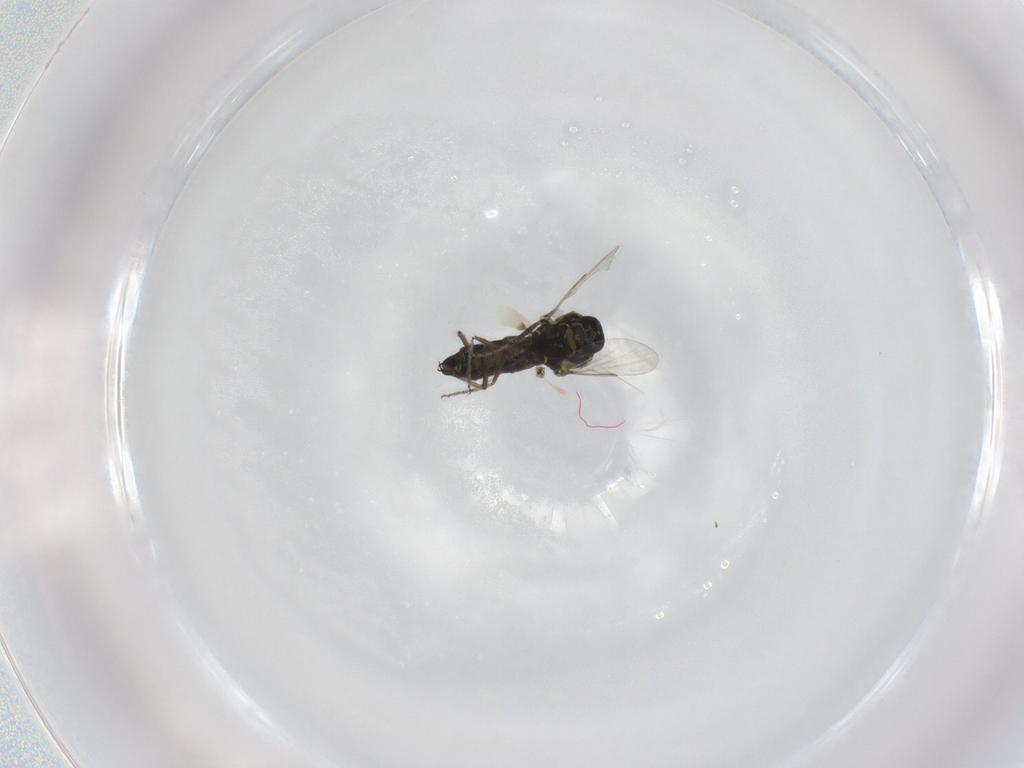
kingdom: Animalia
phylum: Arthropoda
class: Insecta
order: Diptera
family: Ceratopogonidae
